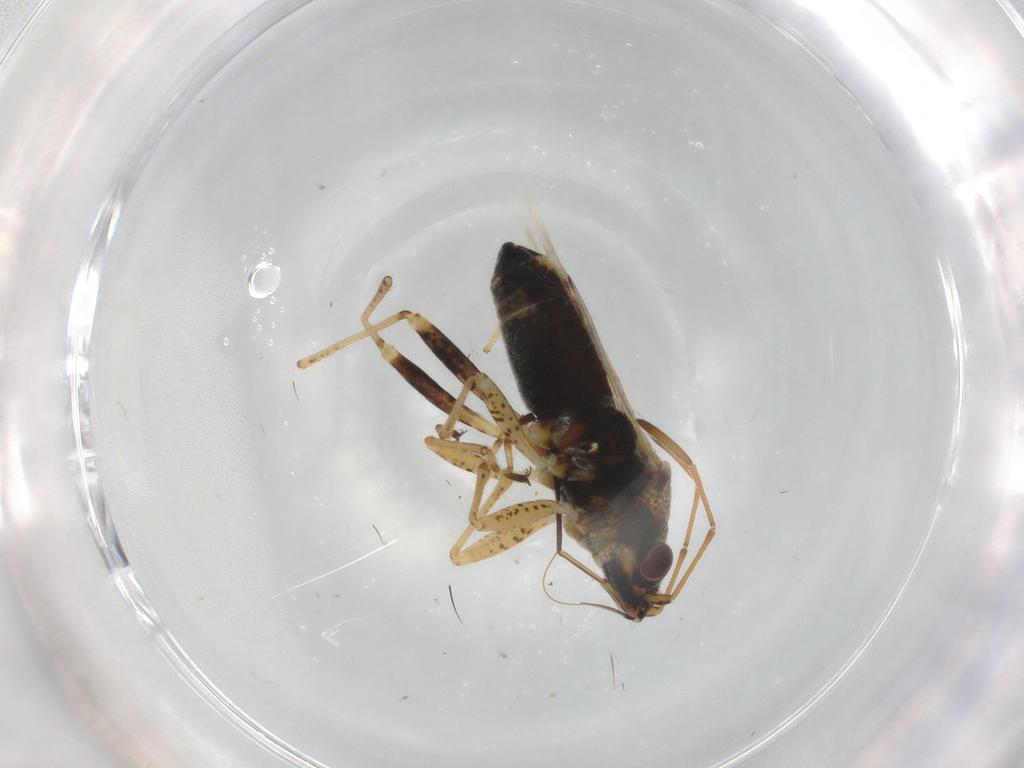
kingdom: Animalia
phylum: Arthropoda
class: Insecta
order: Hemiptera
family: Lygaeidae
